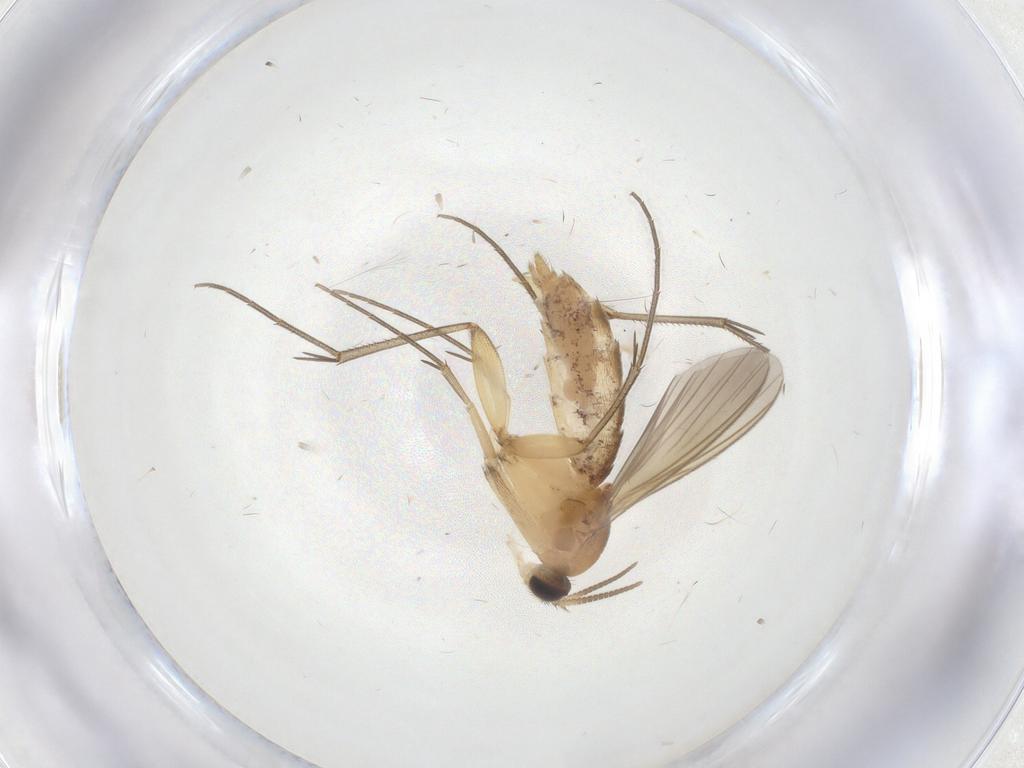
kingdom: Animalia
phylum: Arthropoda
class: Insecta
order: Diptera
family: Mycetophilidae
